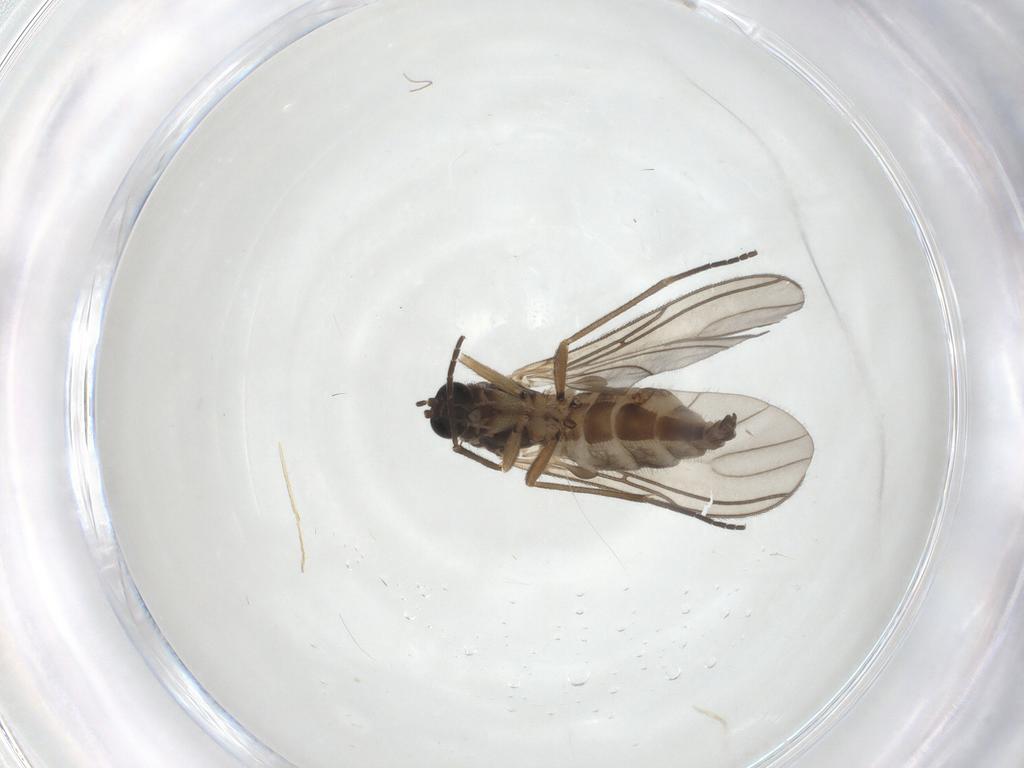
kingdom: Animalia
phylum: Arthropoda
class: Insecta
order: Diptera
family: Sciaridae
